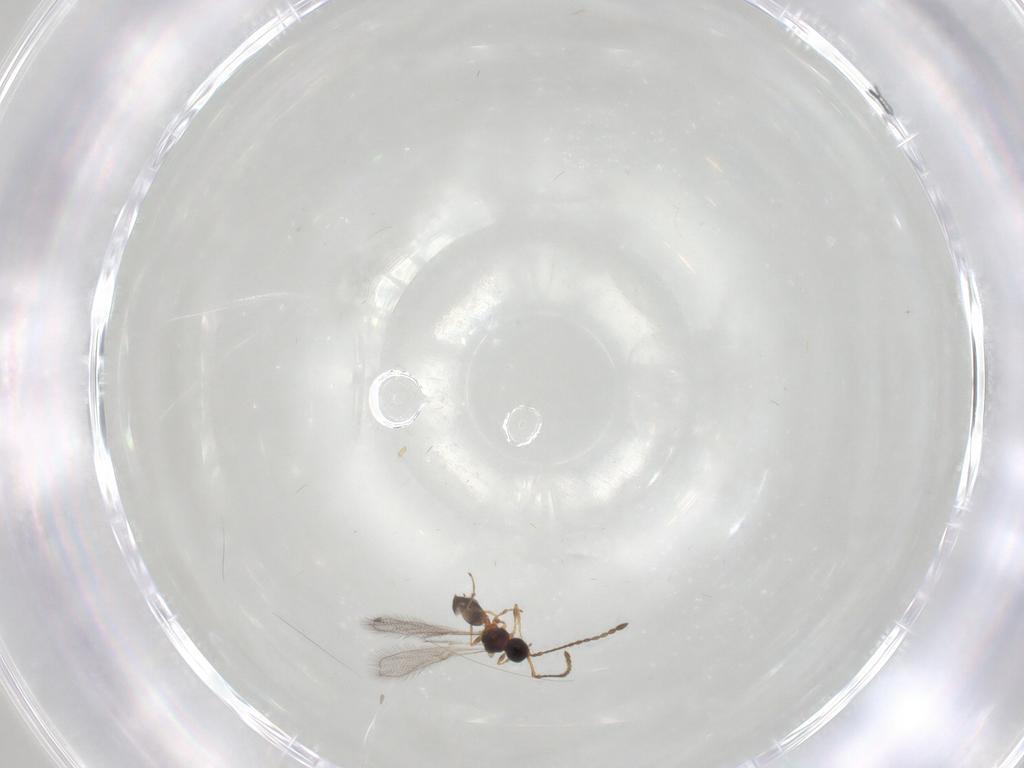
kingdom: Animalia
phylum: Arthropoda
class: Insecta
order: Hymenoptera
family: Diapriidae
